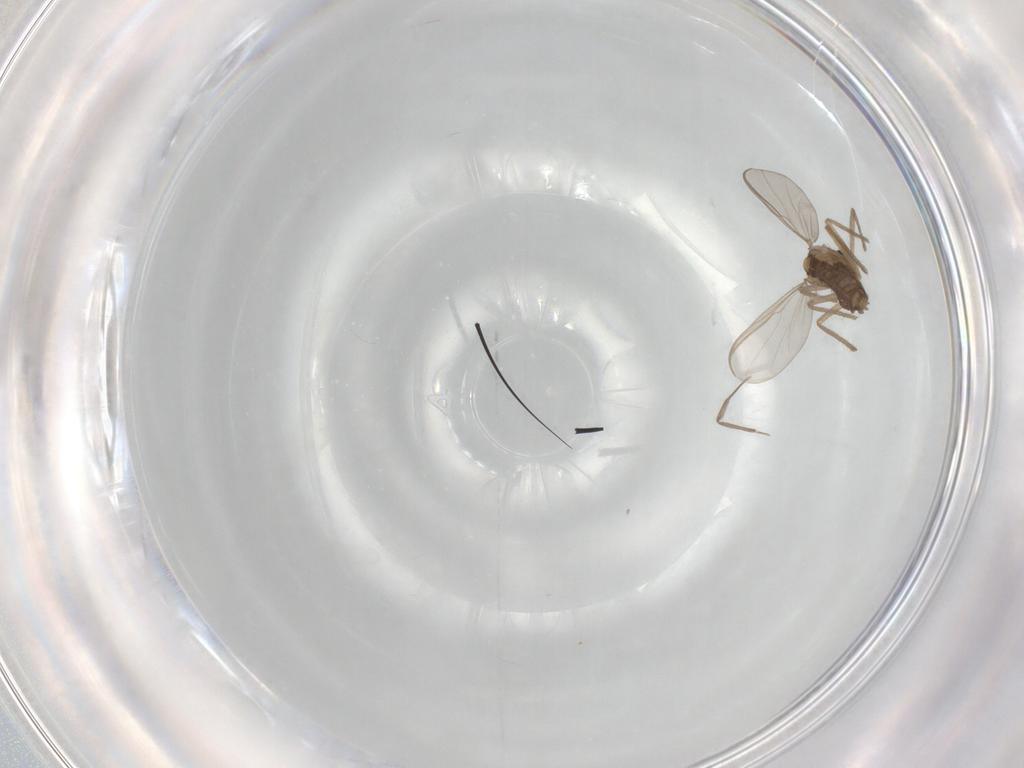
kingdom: Animalia
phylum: Arthropoda
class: Insecta
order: Diptera
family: Chironomidae
